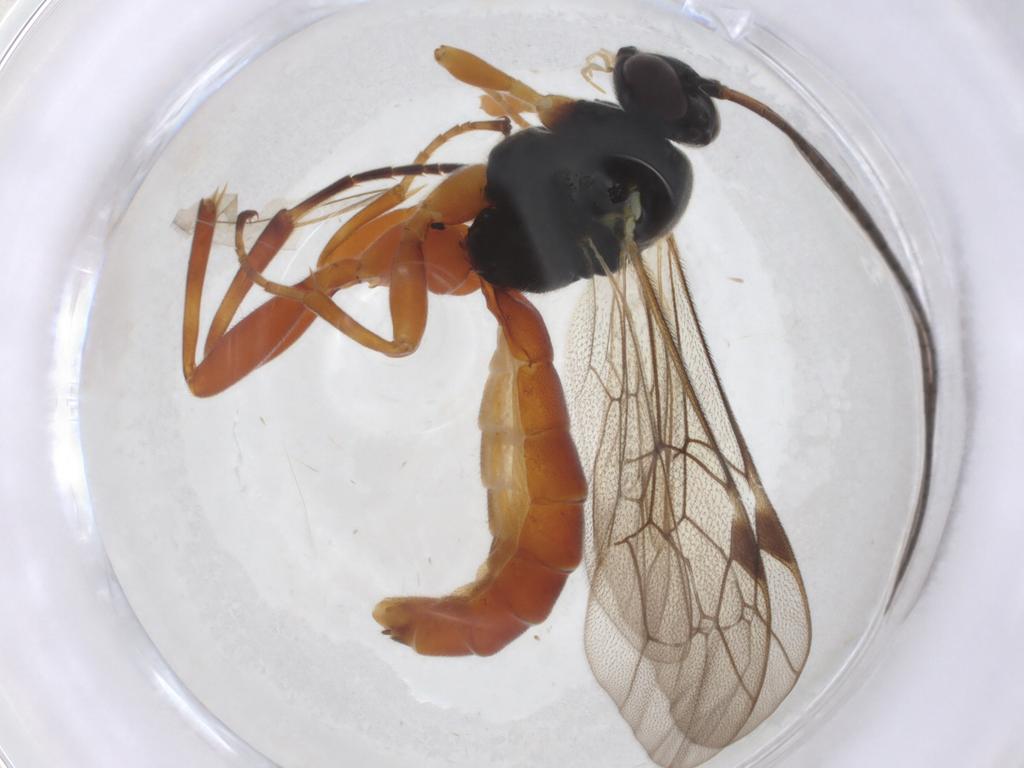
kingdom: Animalia
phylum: Arthropoda
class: Insecta
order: Hymenoptera
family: Ichneumonidae
